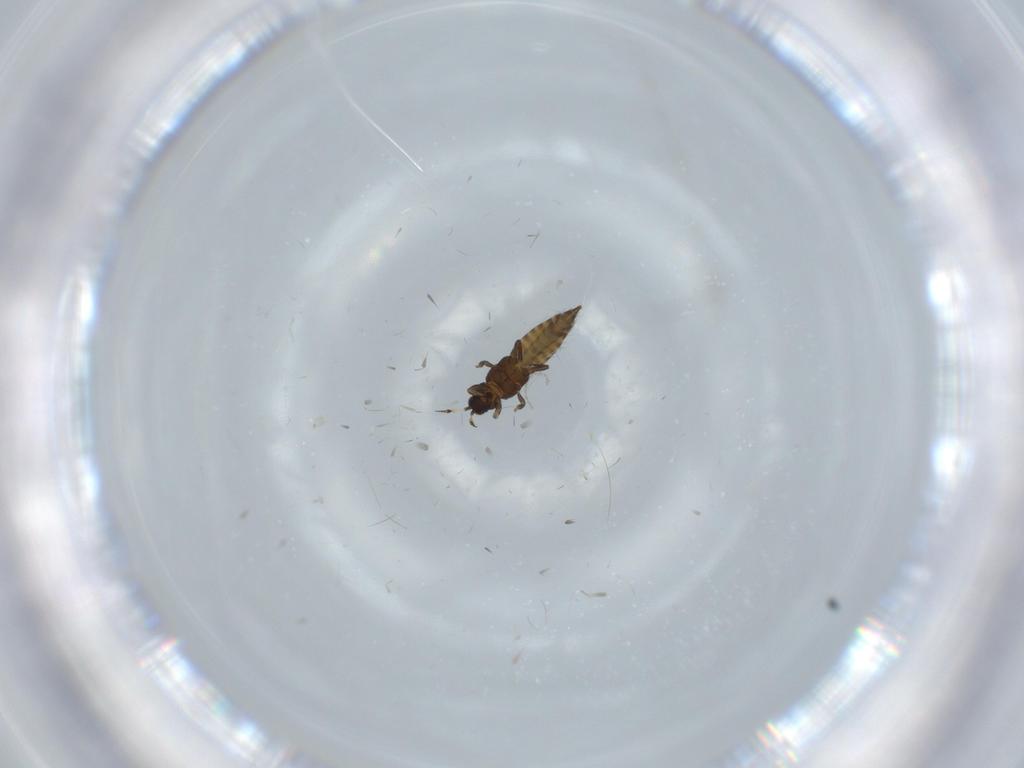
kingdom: Animalia
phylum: Arthropoda
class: Insecta
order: Thysanoptera
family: Heterothripidae
